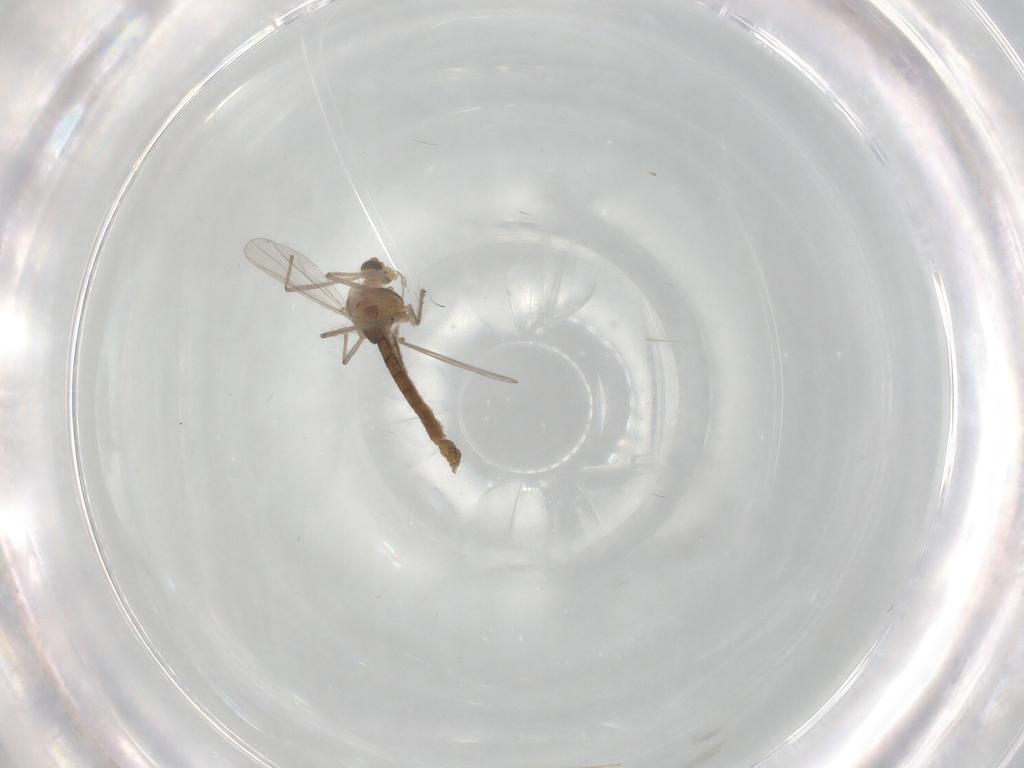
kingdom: Animalia
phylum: Arthropoda
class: Insecta
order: Diptera
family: Chironomidae
